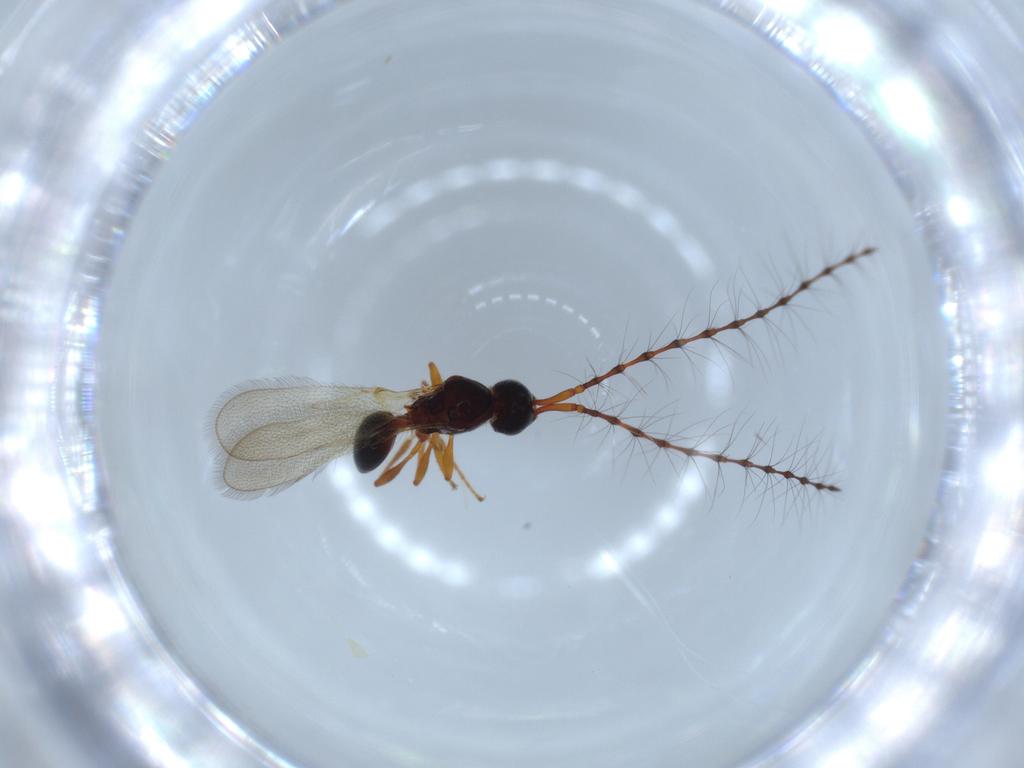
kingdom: Animalia
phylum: Arthropoda
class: Insecta
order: Hymenoptera
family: Diapriidae
